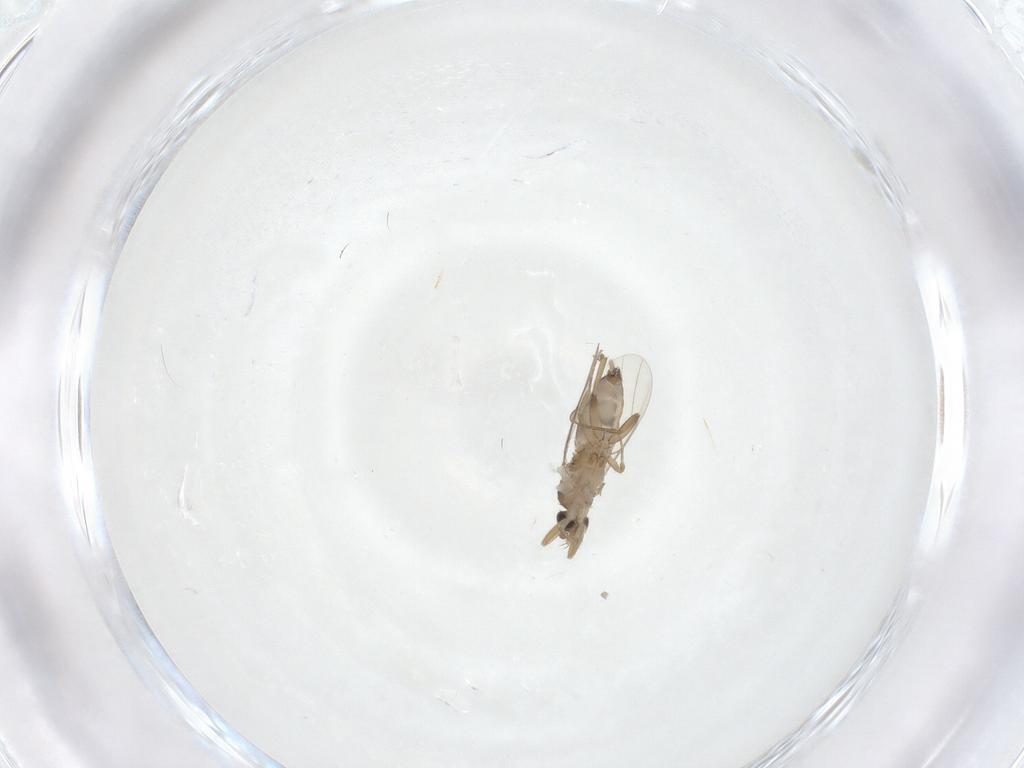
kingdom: Animalia
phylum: Arthropoda
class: Insecta
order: Diptera
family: Phoridae
